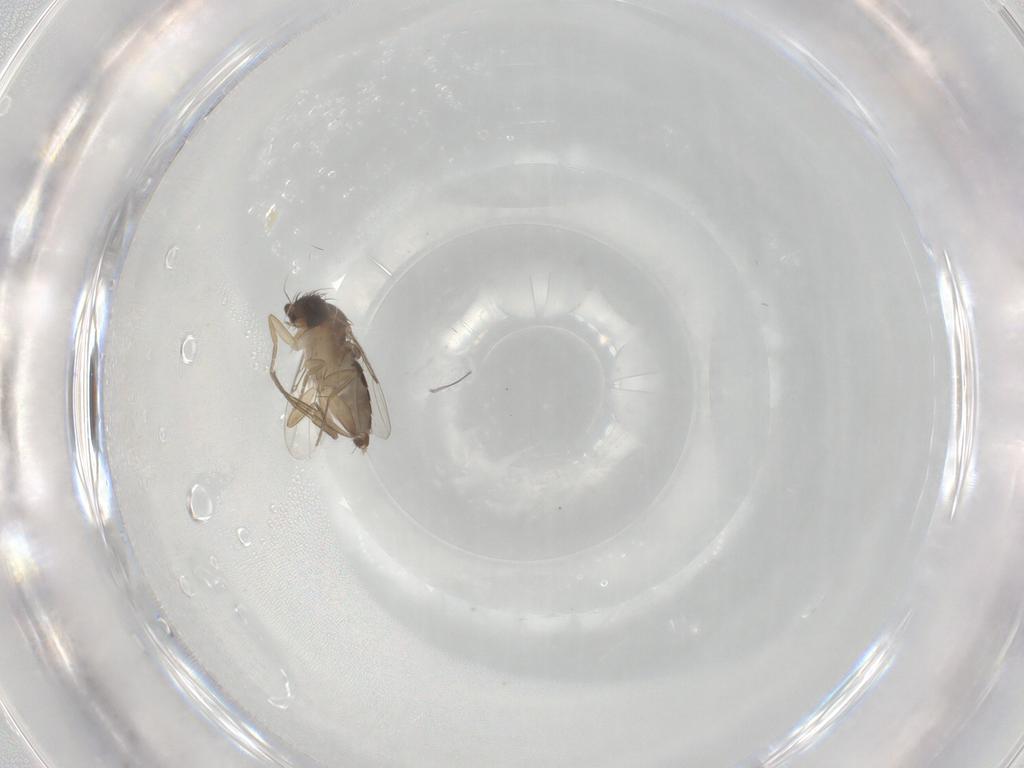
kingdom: Animalia
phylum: Arthropoda
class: Insecta
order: Diptera
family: Phoridae
